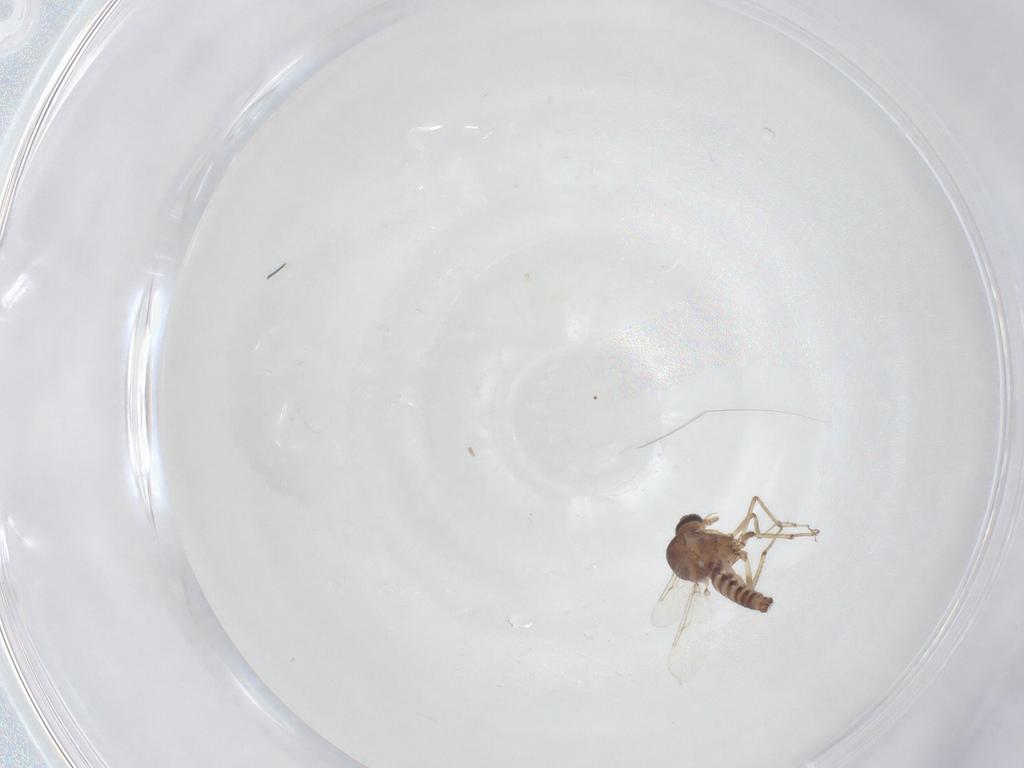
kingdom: Animalia
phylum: Arthropoda
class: Insecta
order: Diptera
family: Ceratopogonidae
